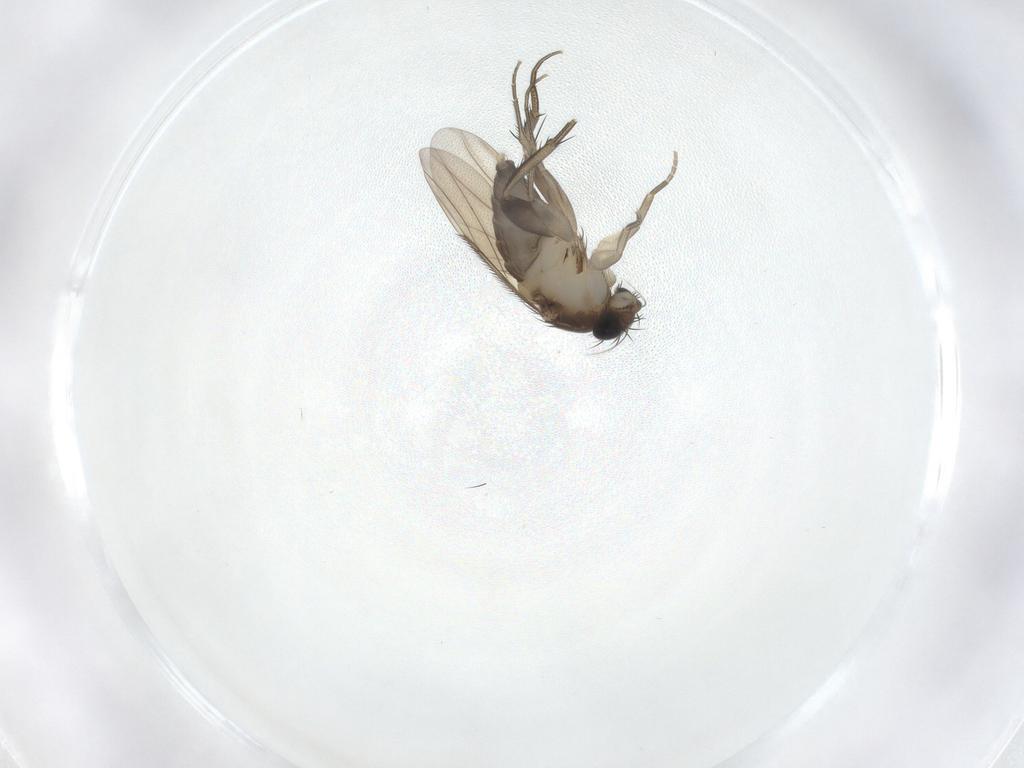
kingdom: Animalia
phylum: Arthropoda
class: Insecta
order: Diptera
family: Phoridae
